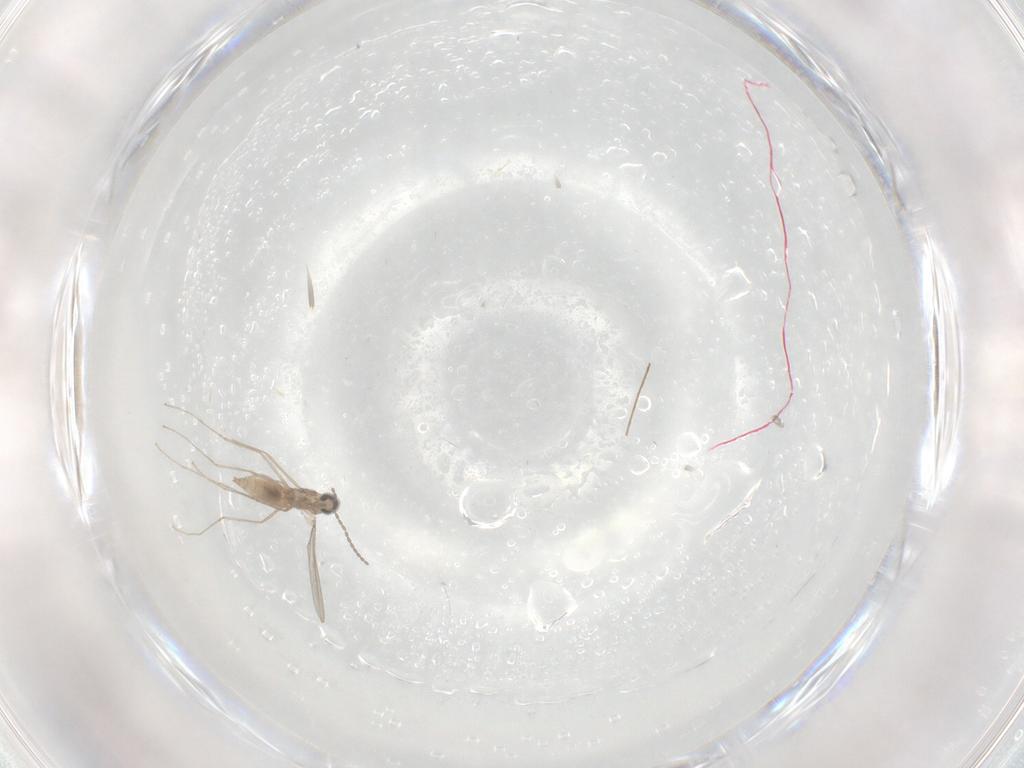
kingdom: Animalia
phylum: Arthropoda
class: Insecta
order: Diptera
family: Cecidomyiidae
